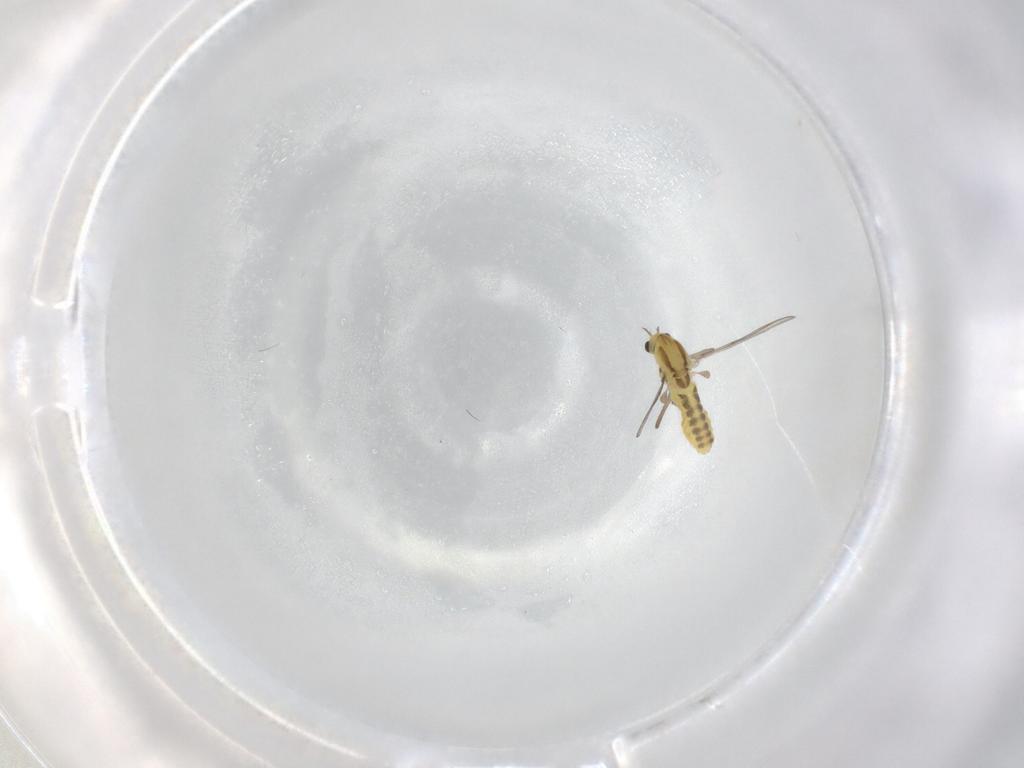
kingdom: Animalia
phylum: Arthropoda
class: Insecta
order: Diptera
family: Chironomidae
